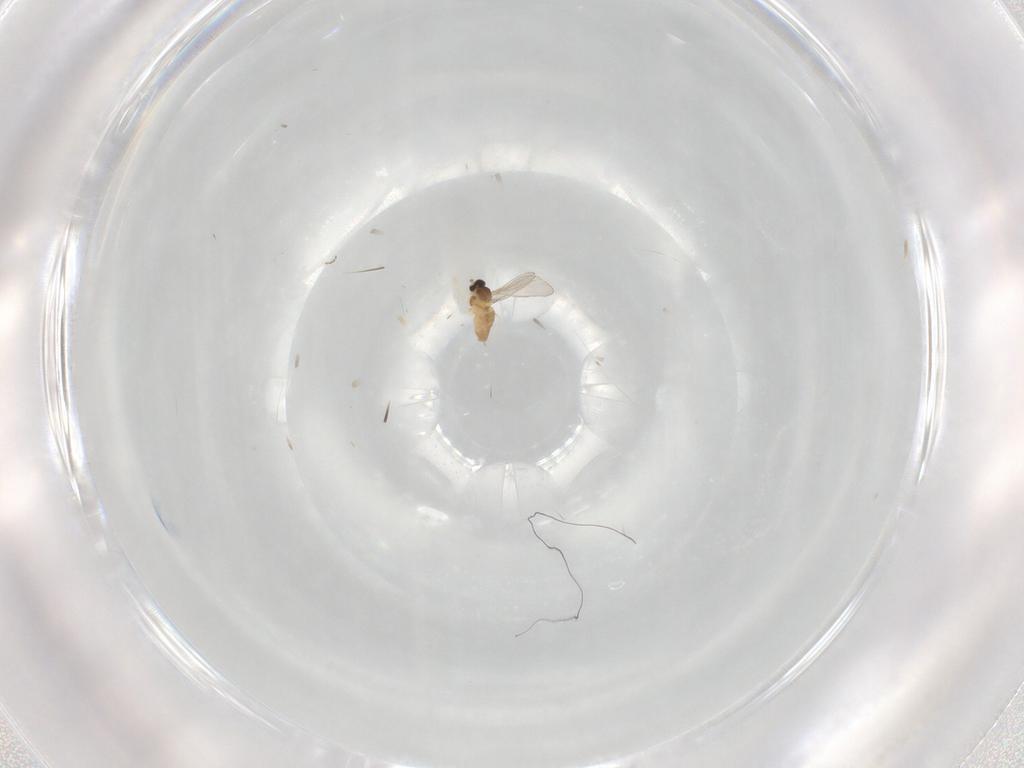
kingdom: Animalia
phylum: Arthropoda
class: Insecta
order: Diptera
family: Cecidomyiidae
